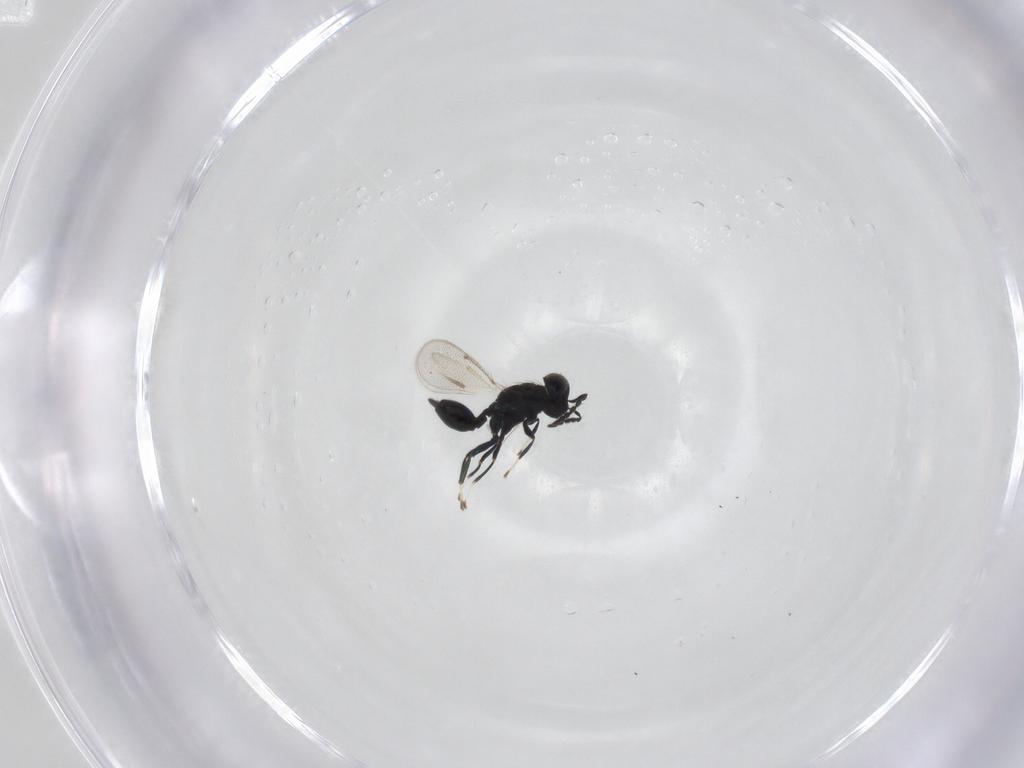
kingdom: Animalia
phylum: Arthropoda
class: Insecta
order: Hymenoptera
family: Eulophidae
